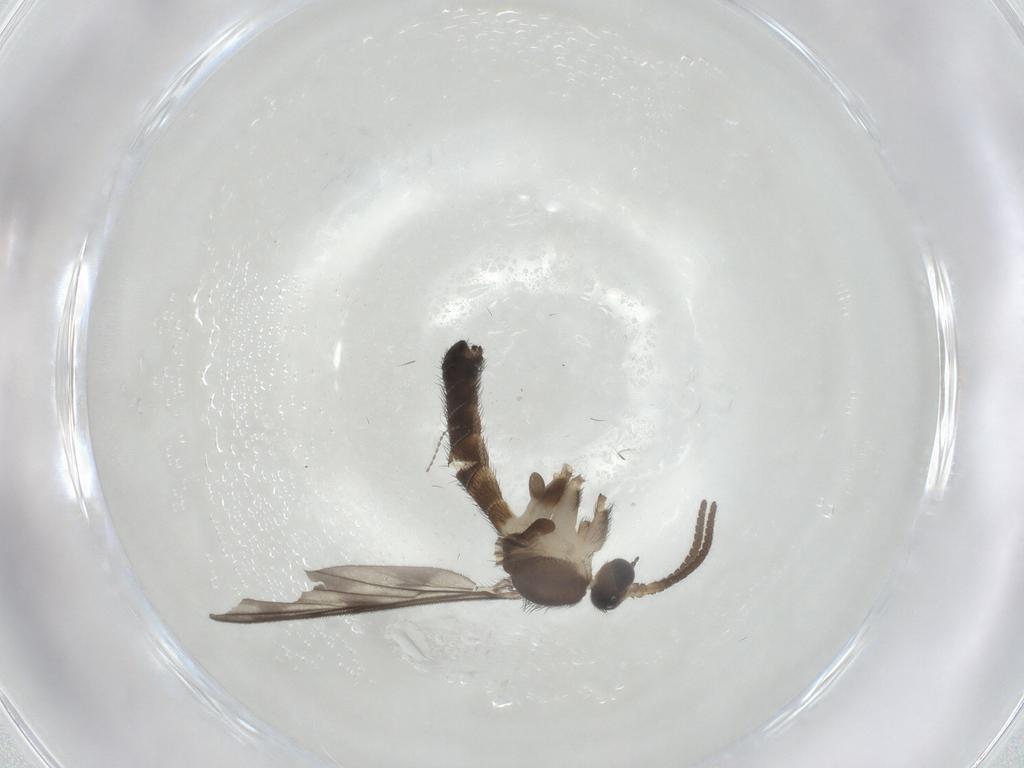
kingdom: Animalia
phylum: Arthropoda
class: Insecta
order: Diptera
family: Keroplatidae
